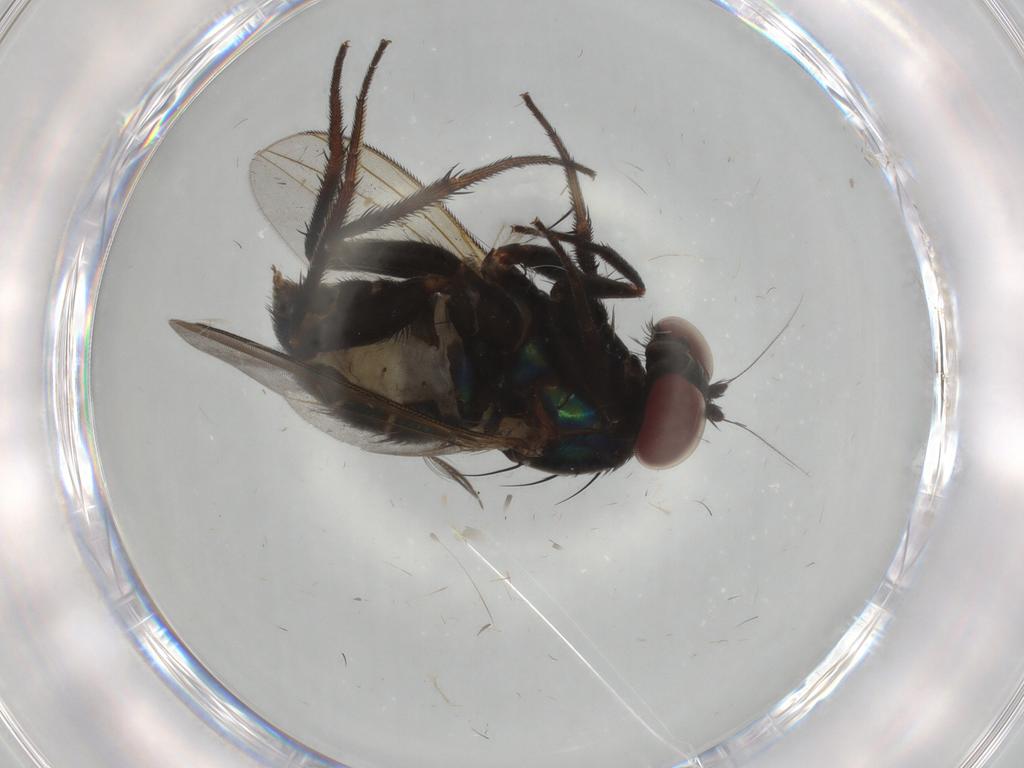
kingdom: Animalia
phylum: Arthropoda
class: Insecta
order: Diptera
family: Dolichopodidae
